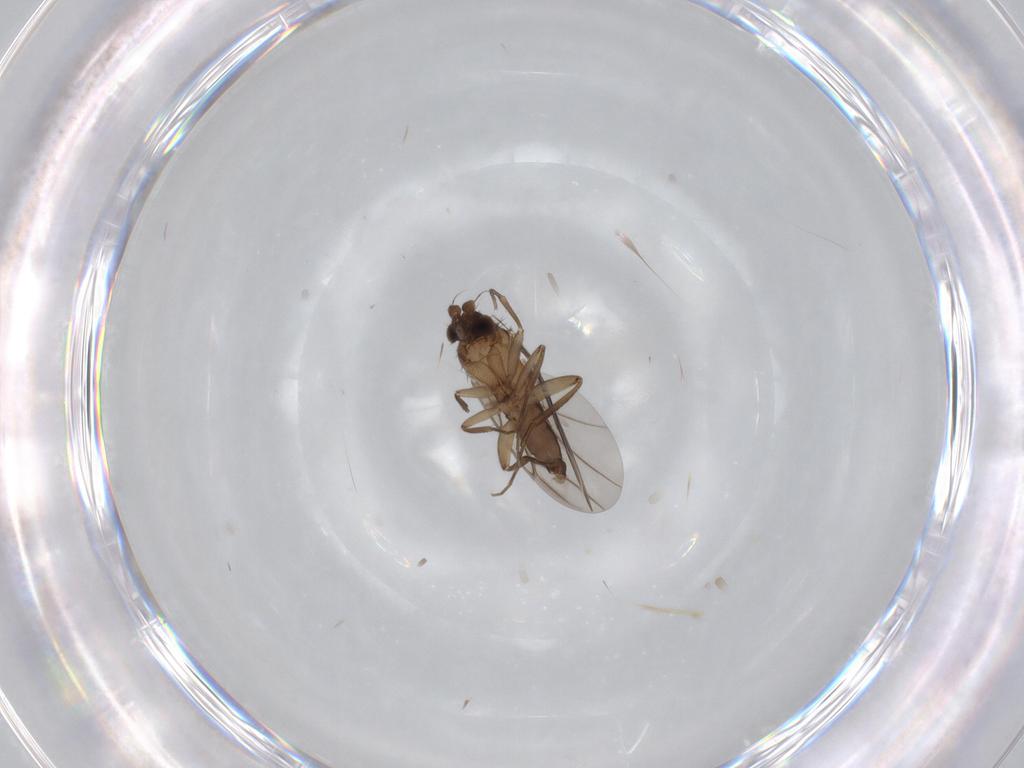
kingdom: Animalia
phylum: Arthropoda
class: Insecta
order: Diptera
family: Phoridae
